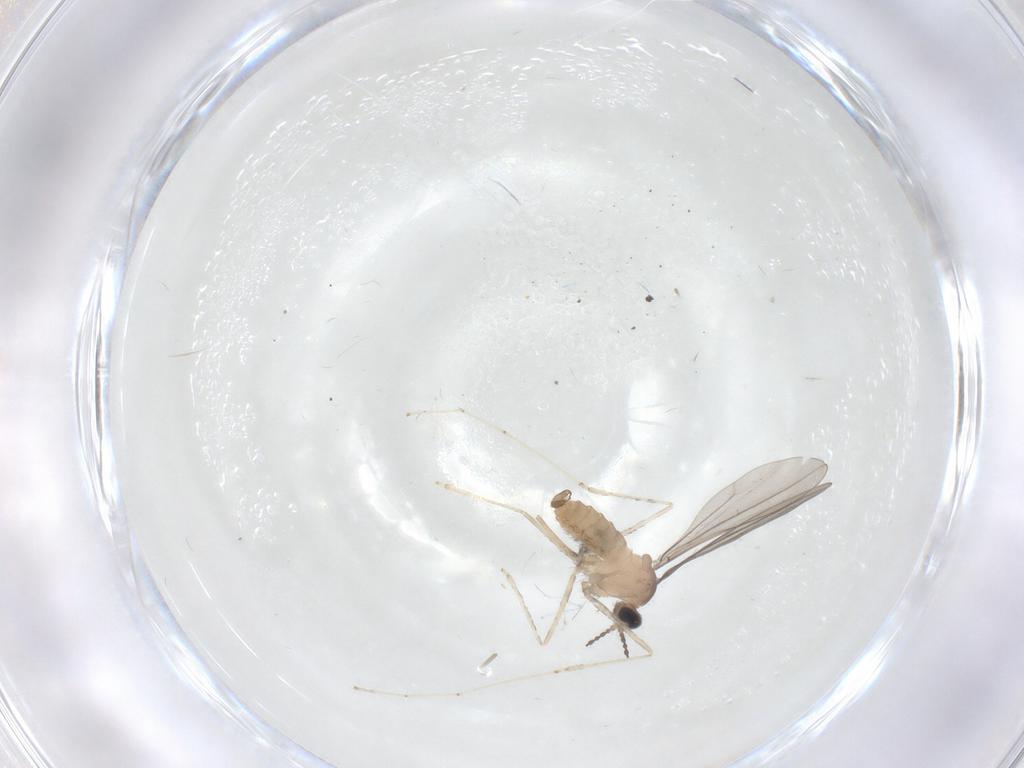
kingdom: Animalia
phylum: Arthropoda
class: Insecta
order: Diptera
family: Cecidomyiidae
